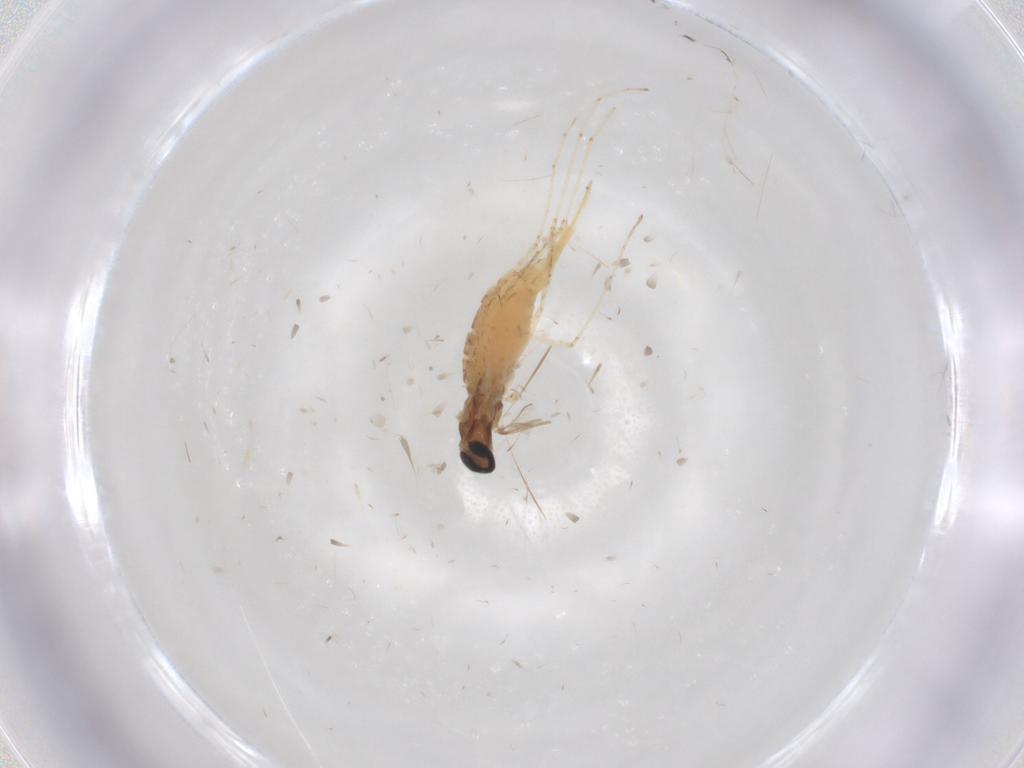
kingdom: Animalia
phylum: Arthropoda
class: Insecta
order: Diptera
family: Cecidomyiidae
